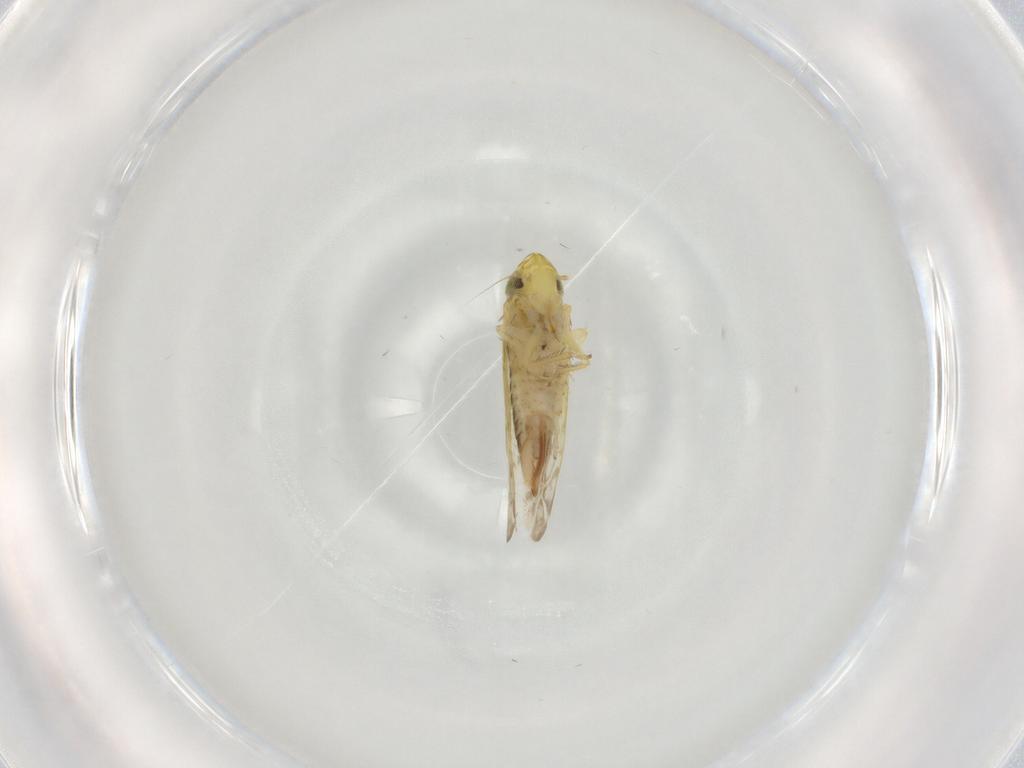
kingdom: Animalia
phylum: Arthropoda
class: Insecta
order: Hemiptera
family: Cicadellidae
